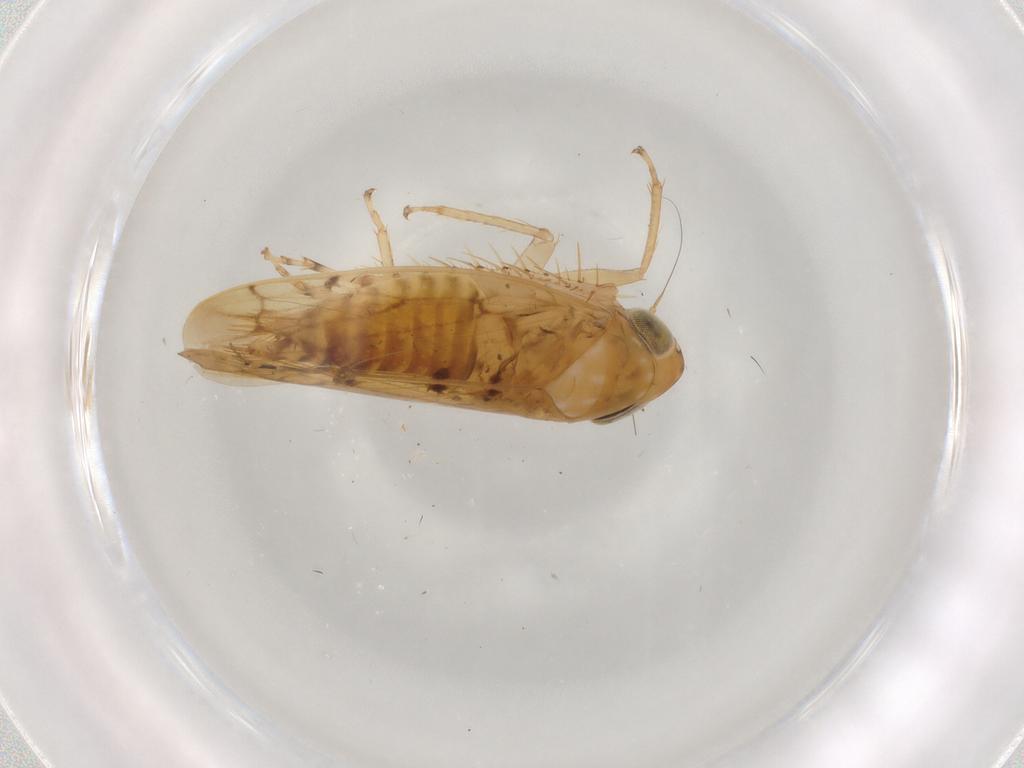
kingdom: Animalia
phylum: Arthropoda
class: Insecta
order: Hemiptera
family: Cicadellidae
